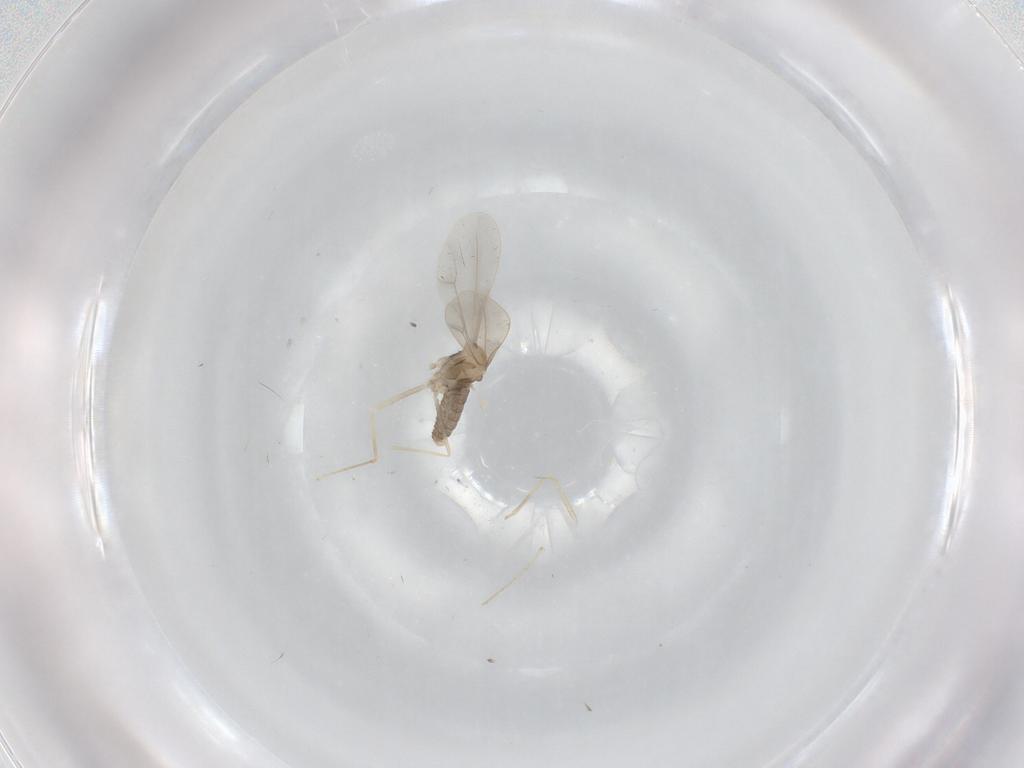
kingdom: Animalia
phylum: Arthropoda
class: Insecta
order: Diptera
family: Cecidomyiidae
